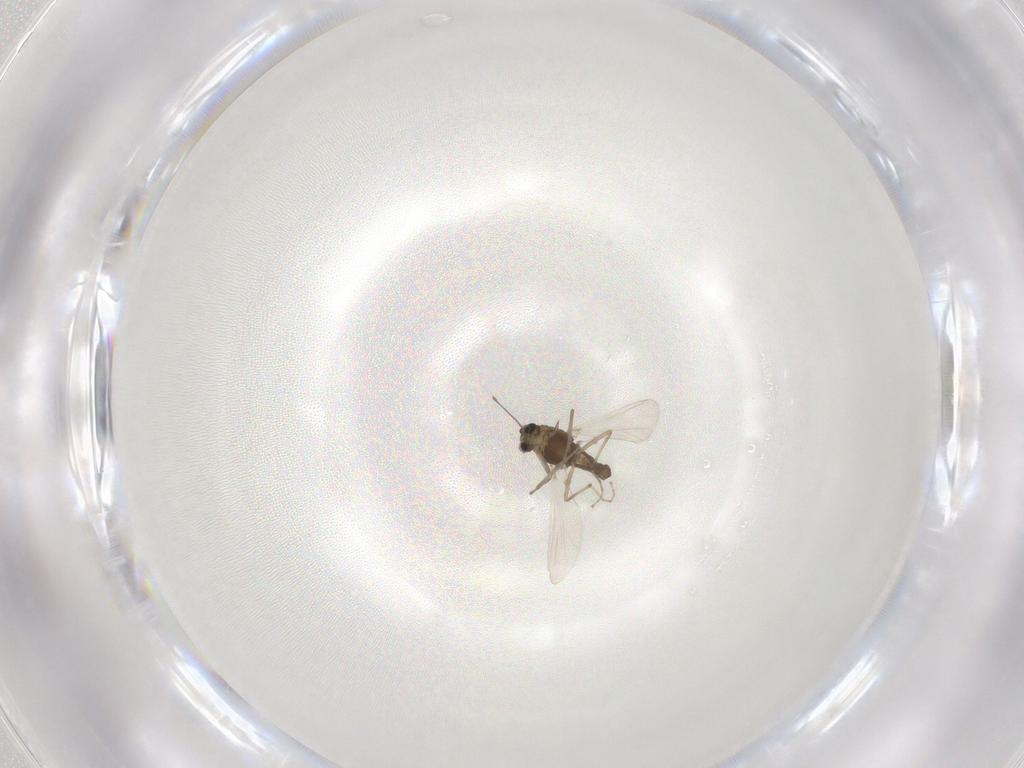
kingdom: Animalia
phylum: Arthropoda
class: Insecta
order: Diptera
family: Chironomidae
